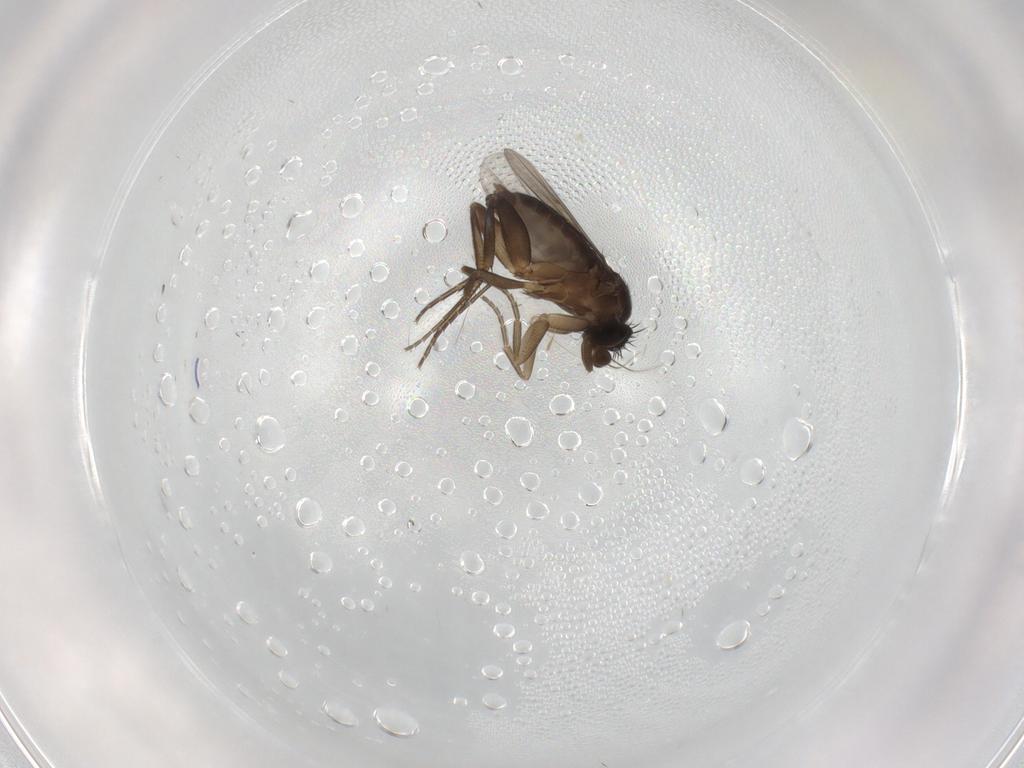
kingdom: Animalia
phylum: Arthropoda
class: Insecta
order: Diptera
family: Phoridae
